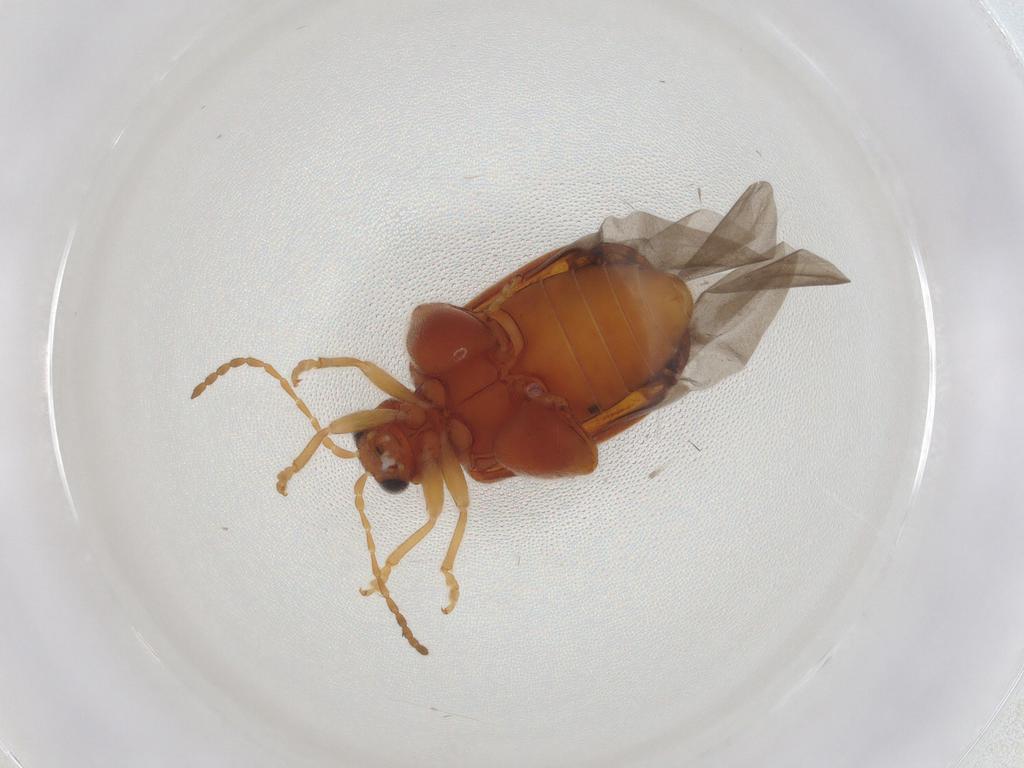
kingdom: Animalia
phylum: Arthropoda
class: Insecta
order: Coleoptera
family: Chrysomelidae
